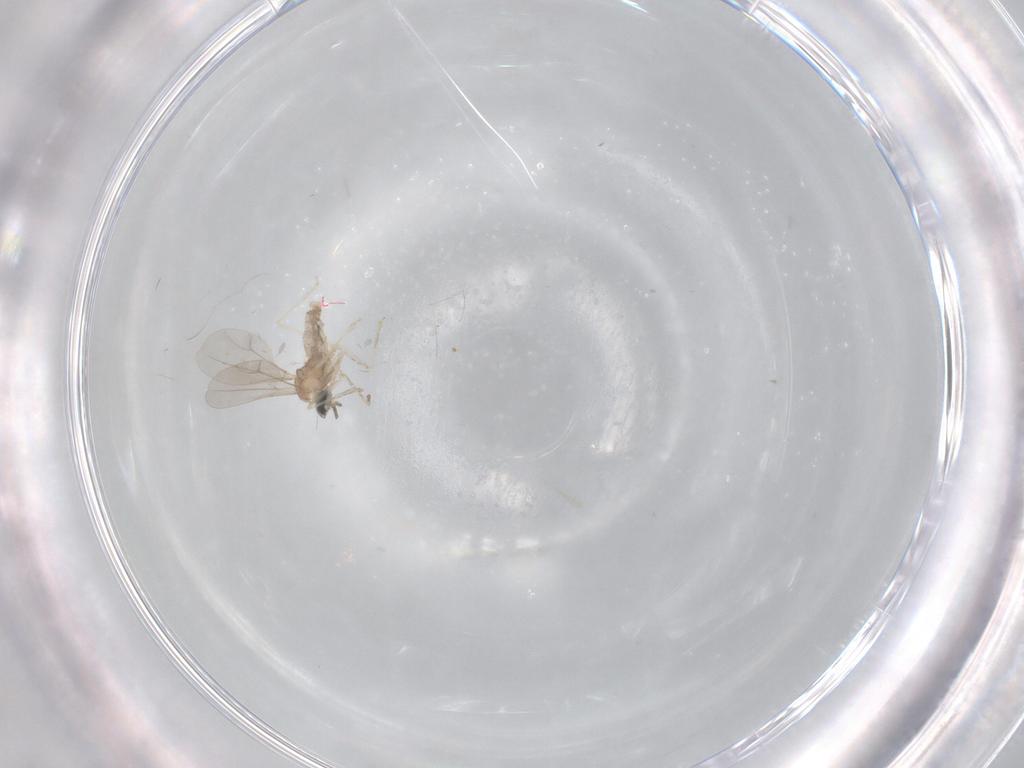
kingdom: Animalia
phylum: Arthropoda
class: Insecta
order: Diptera
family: Cecidomyiidae
